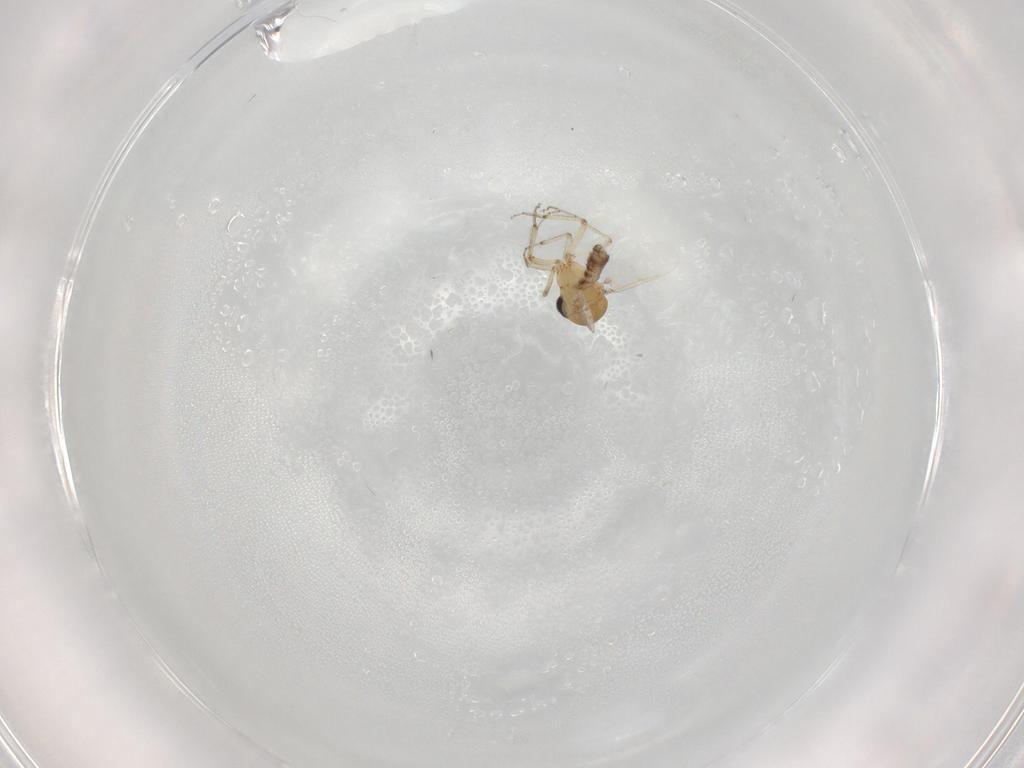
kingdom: Animalia
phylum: Arthropoda
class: Insecta
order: Diptera
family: Ceratopogonidae
